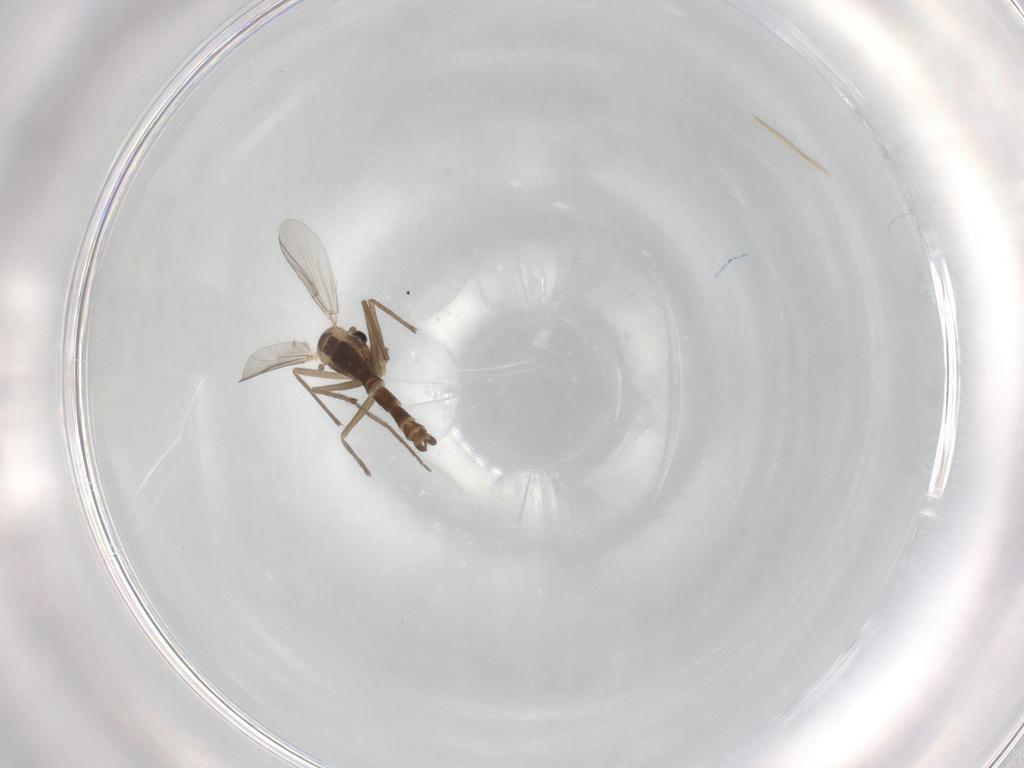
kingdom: Animalia
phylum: Arthropoda
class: Insecta
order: Diptera
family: Chironomidae
